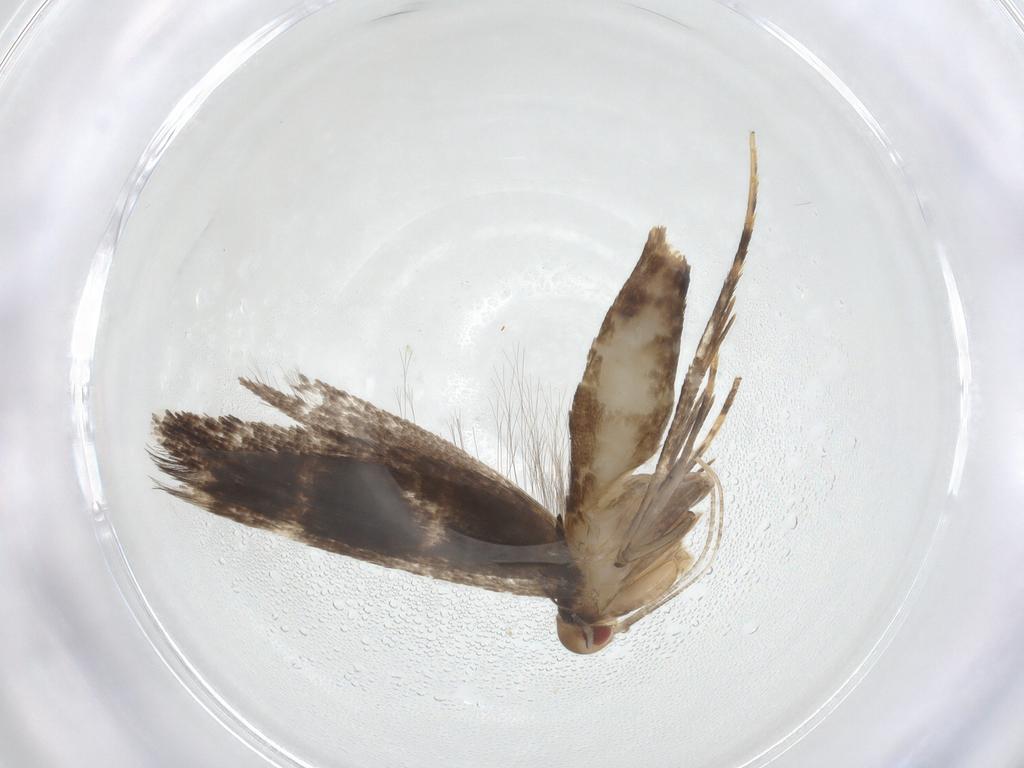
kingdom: Animalia
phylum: Arthropoda
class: Insecta
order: Lepidoptera
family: Cosmopterigidae
